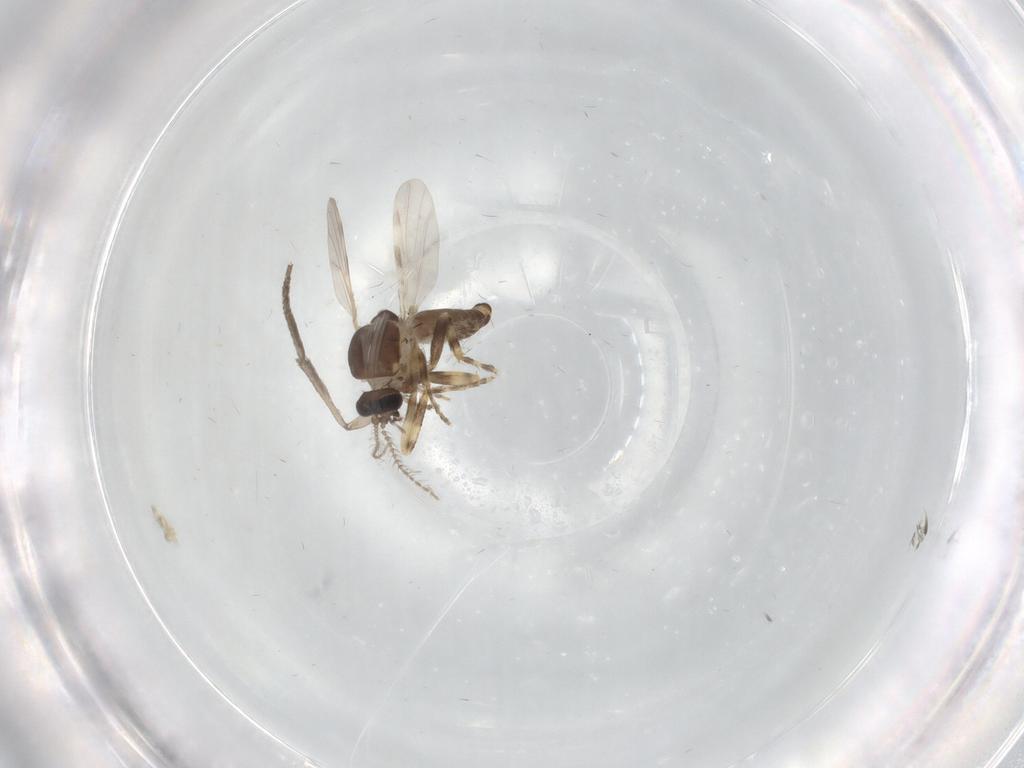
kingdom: Animalia
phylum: Arthropoda
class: Insecta
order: Diptera
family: Ceratopogonidae
